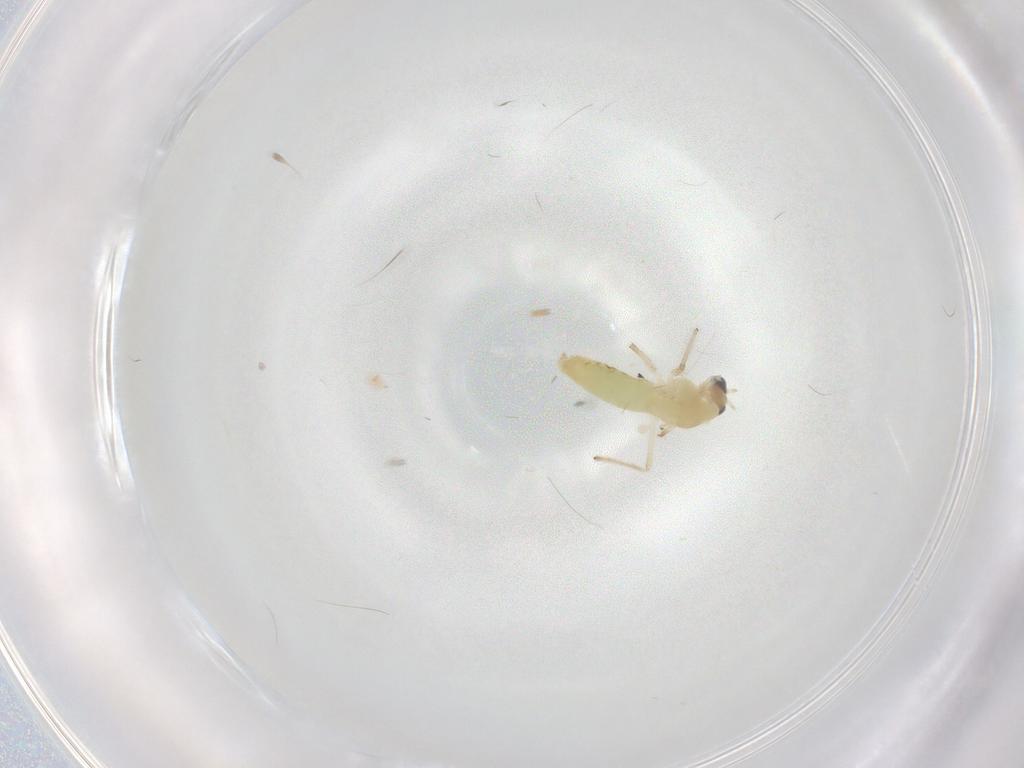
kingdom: Animalia
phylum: Arthropoda
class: Insecta
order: Diptera
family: Chironomidae
